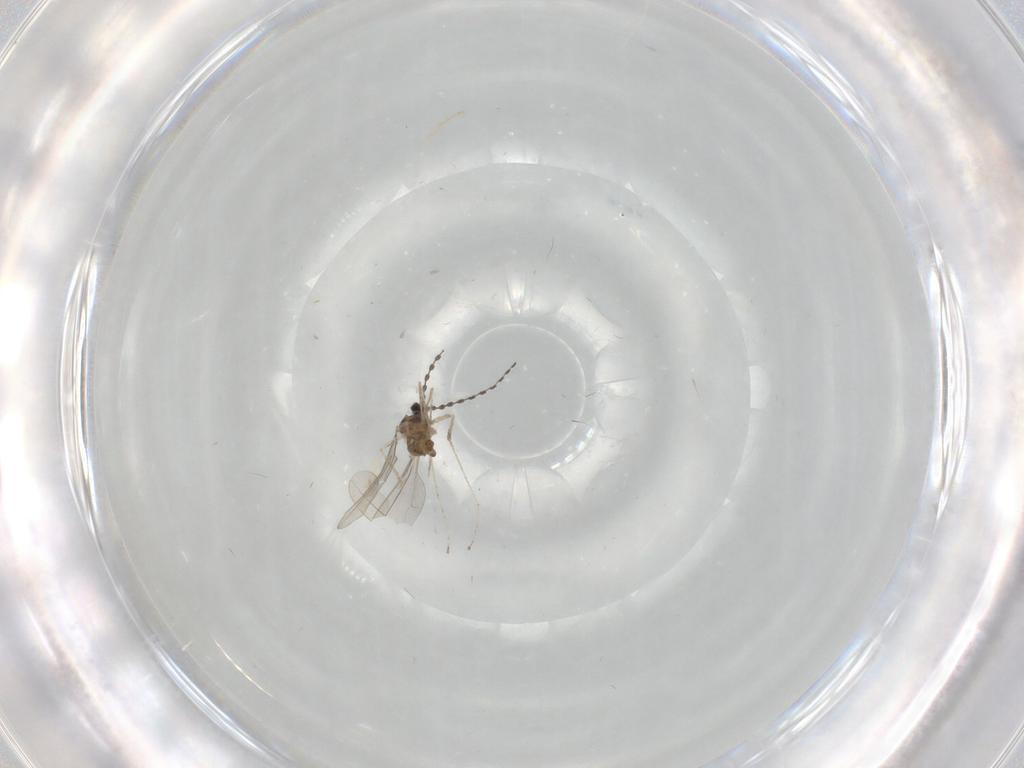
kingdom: Animalia
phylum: Arthropoda
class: Insecta
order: Diptera
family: Cecidomyiidae
